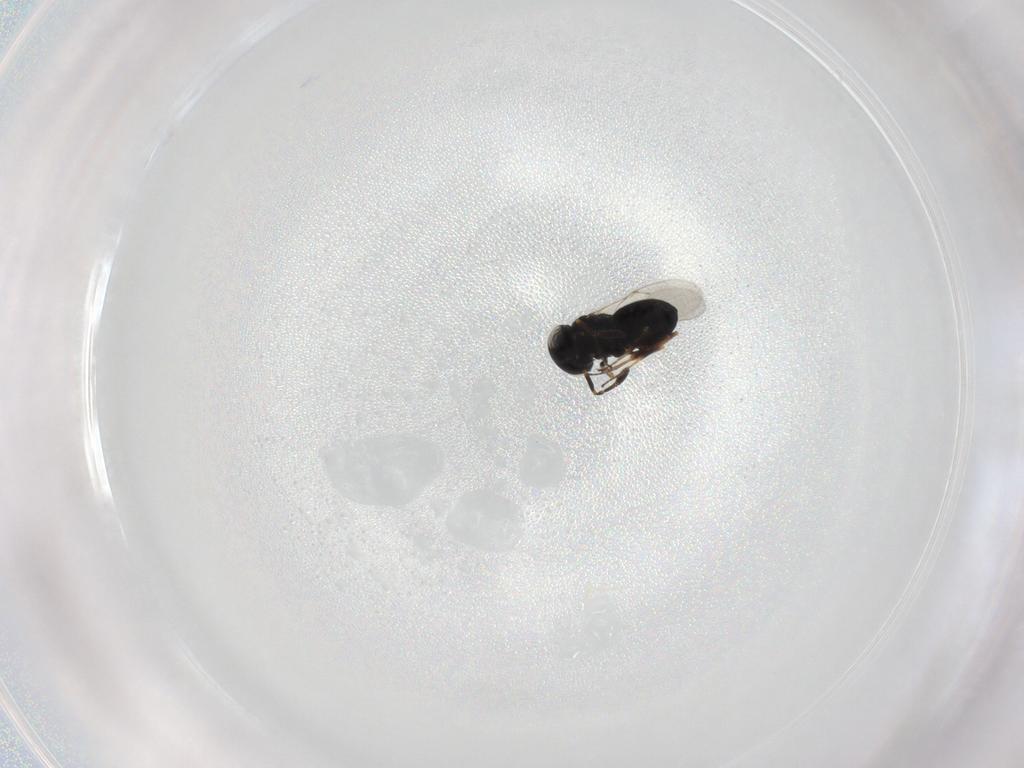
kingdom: Animalia
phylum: Arthropoda
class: Insecta
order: Hymenoptera
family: Scelionidae
